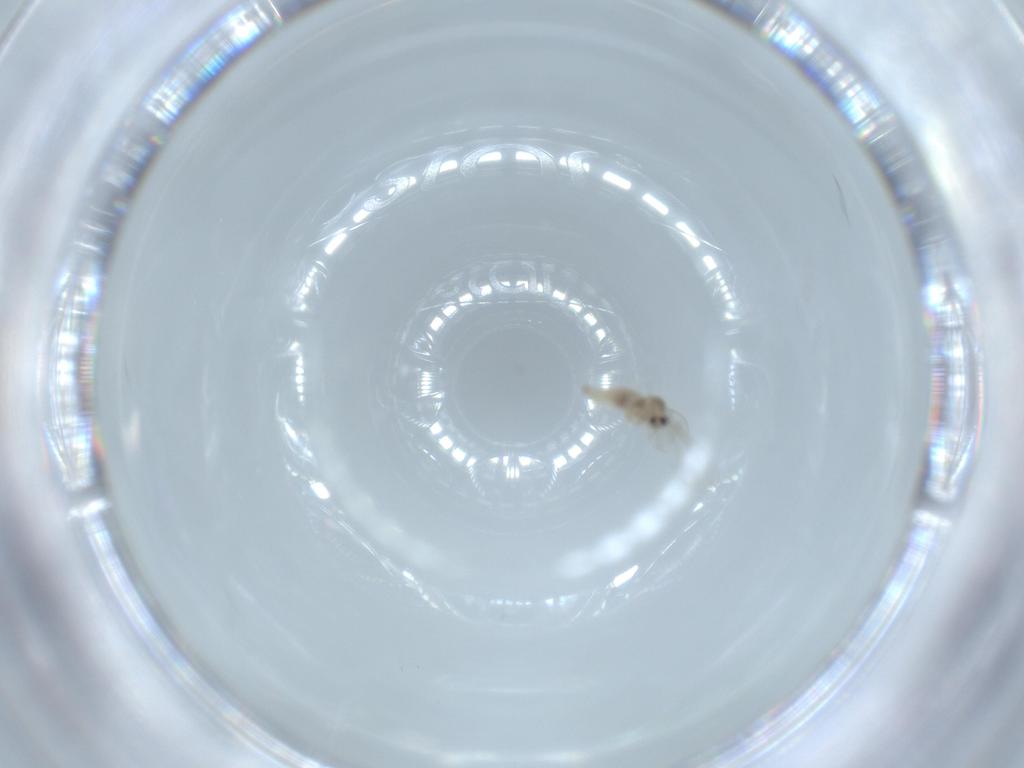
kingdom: Animalia
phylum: Arthropoda
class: Insecta
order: Diptera
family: Cecidomyiidae
